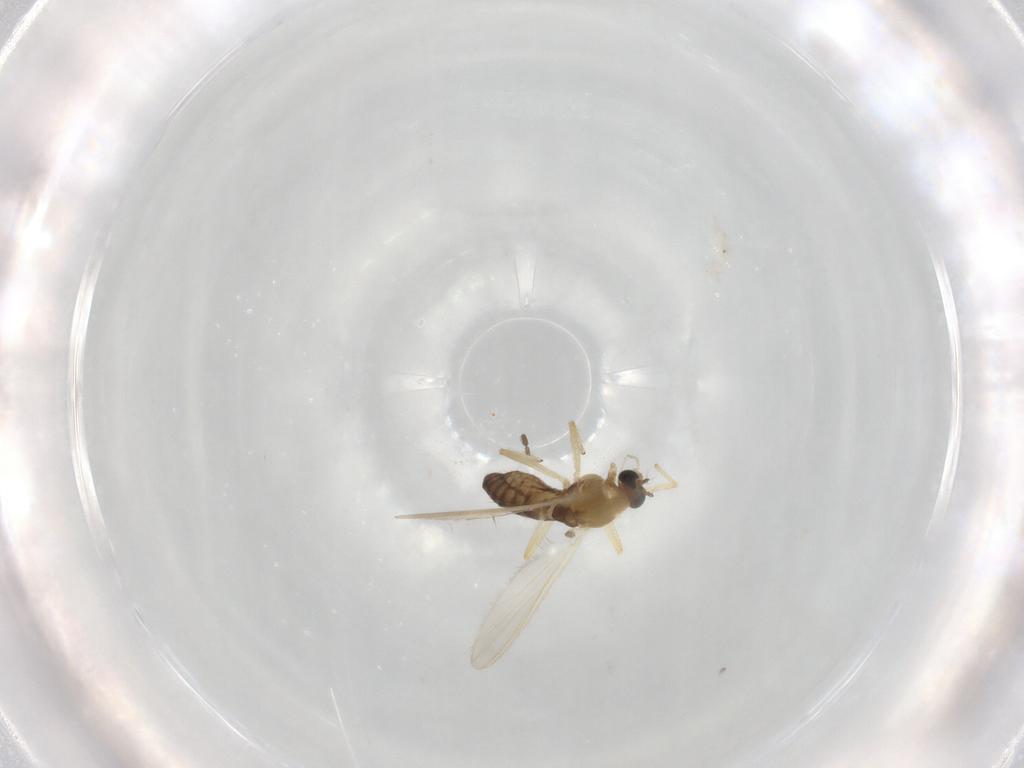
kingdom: Animalia
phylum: Arthropoda
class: Insecta
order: Diptera
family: Chironomidae
